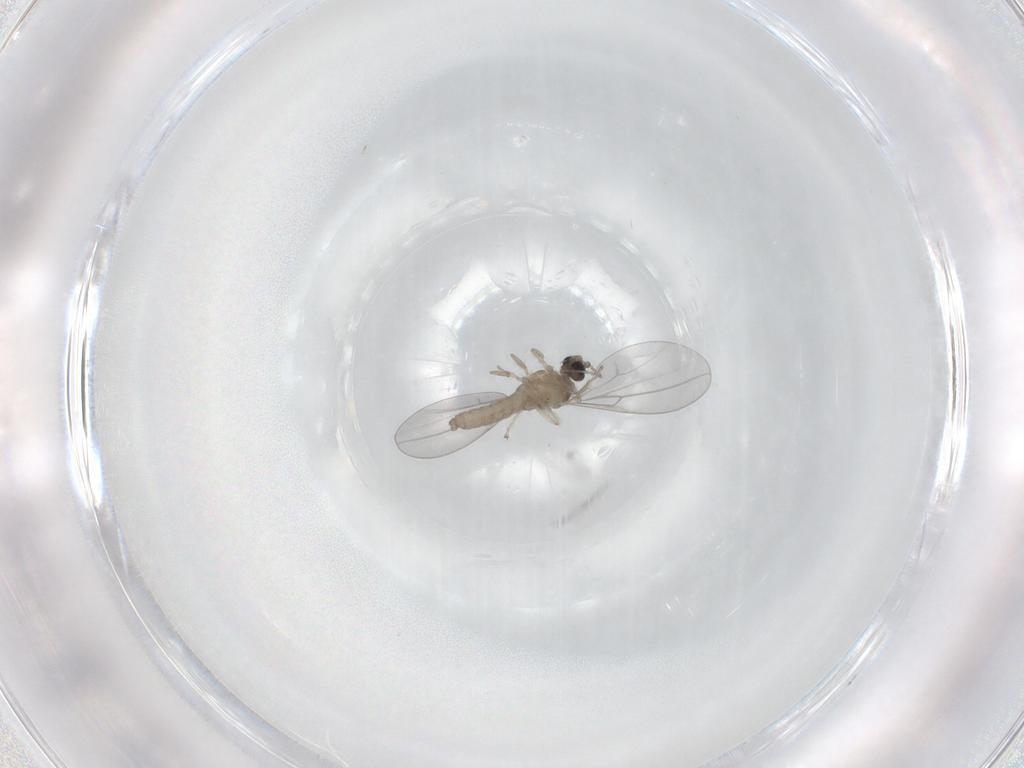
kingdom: Animalia
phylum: Arthropoda
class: Insecta
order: Diptera
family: Cecidomyiidae
